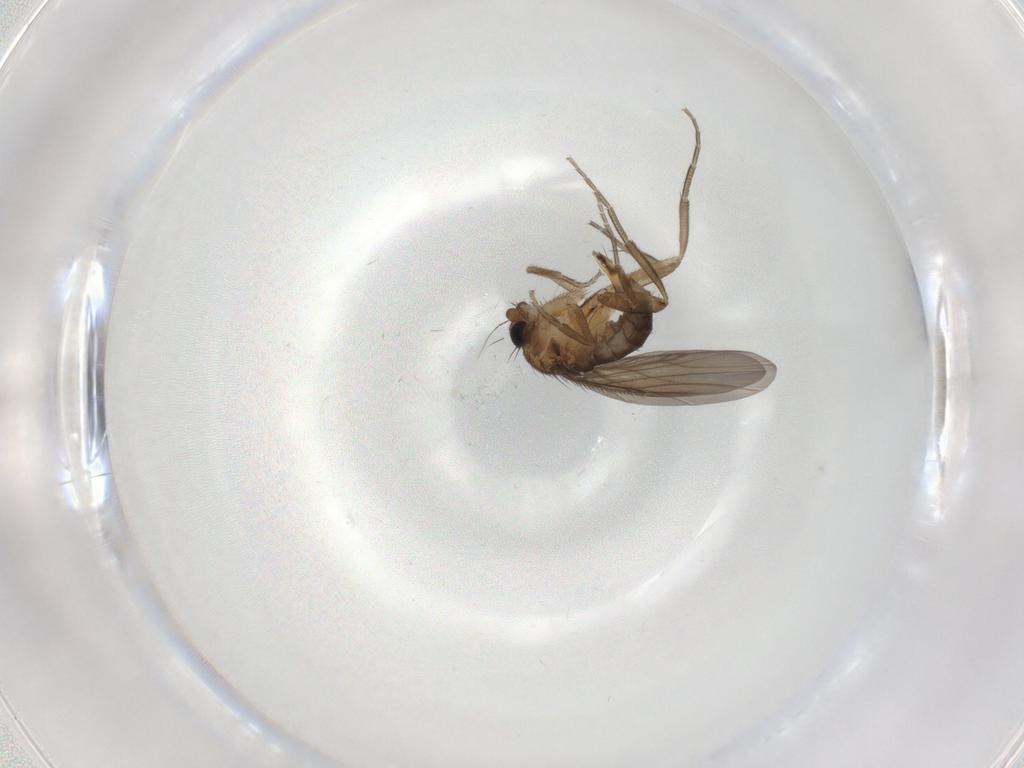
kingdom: Animalia
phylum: Arthropoda
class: Insecta
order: Diptera
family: Phoridae
